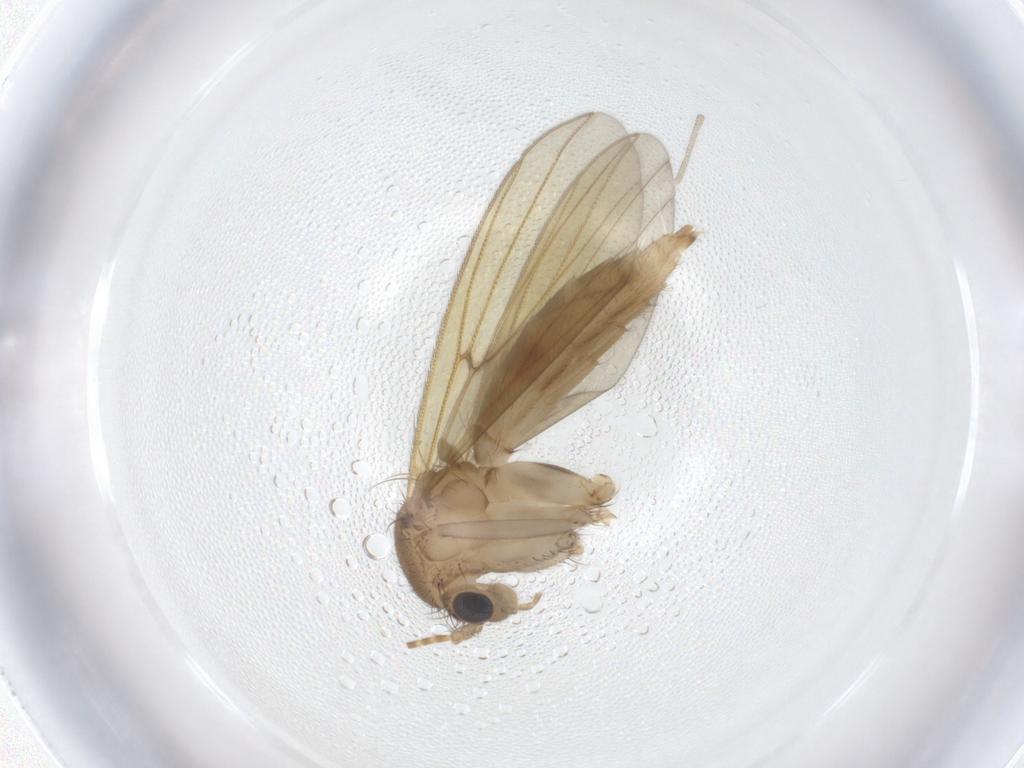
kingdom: Animalia
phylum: Arthropoda
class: Insecta
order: Diptera
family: Mycetophilidae
